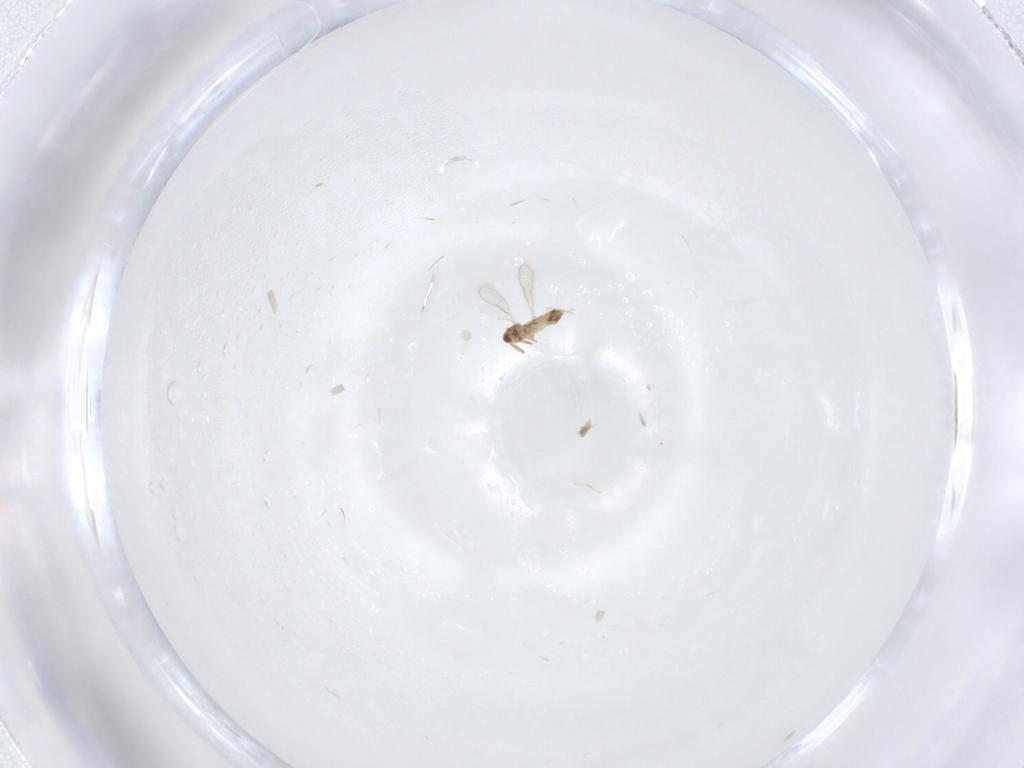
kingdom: Animalia
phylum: Arthropoda
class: Insecta
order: Hymenoptera
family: Aphelinidae
